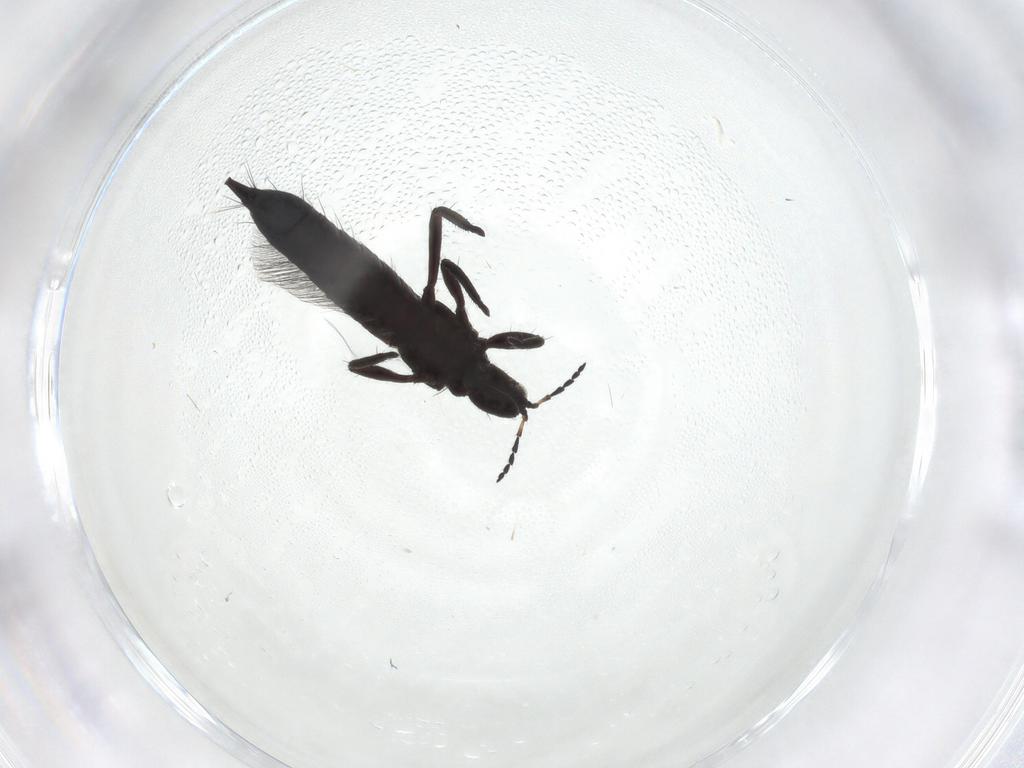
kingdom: Animalia
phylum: Arthropoda
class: Insecta
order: Thysanoptera
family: Phlaeothripidae
